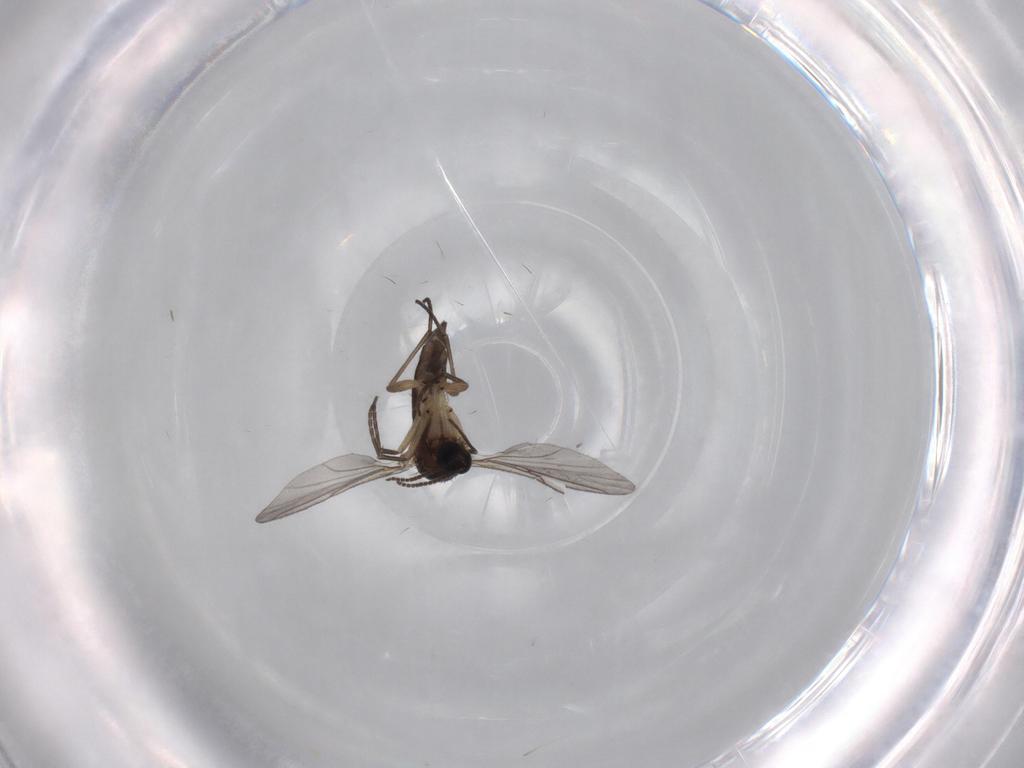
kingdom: Animalia
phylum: Arthropoda
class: Insecta
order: Diptera
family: Sciaridae
